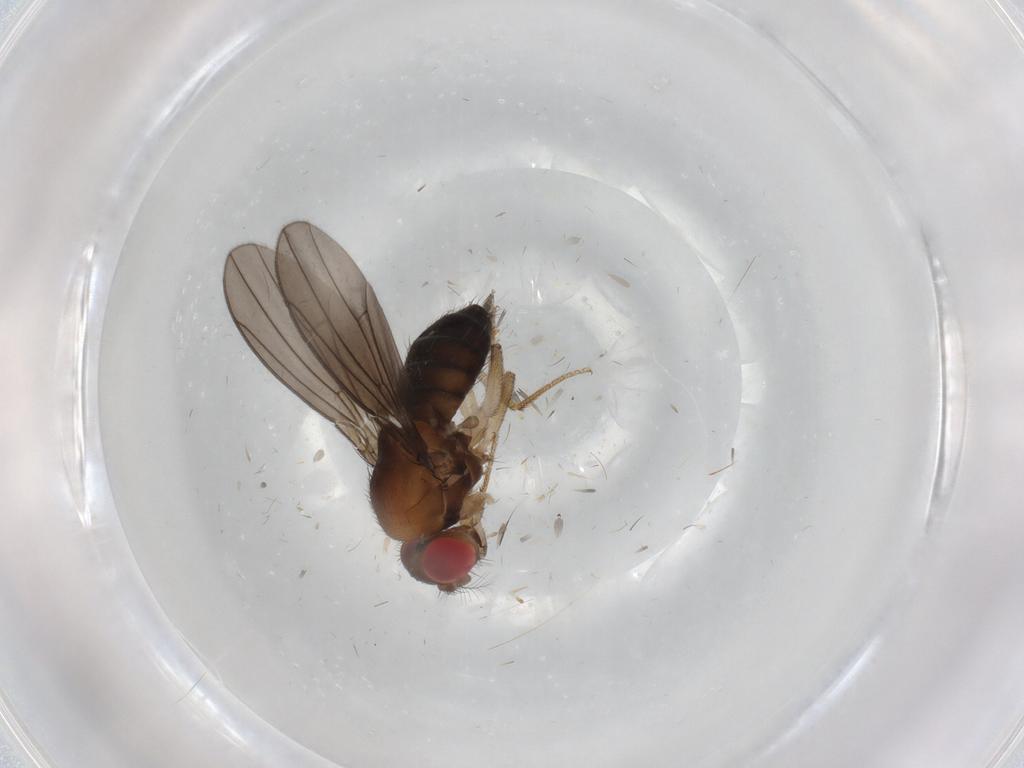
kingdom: Animalia
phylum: Arthropoda
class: Insecta
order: Diptera
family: Drosophilidae
